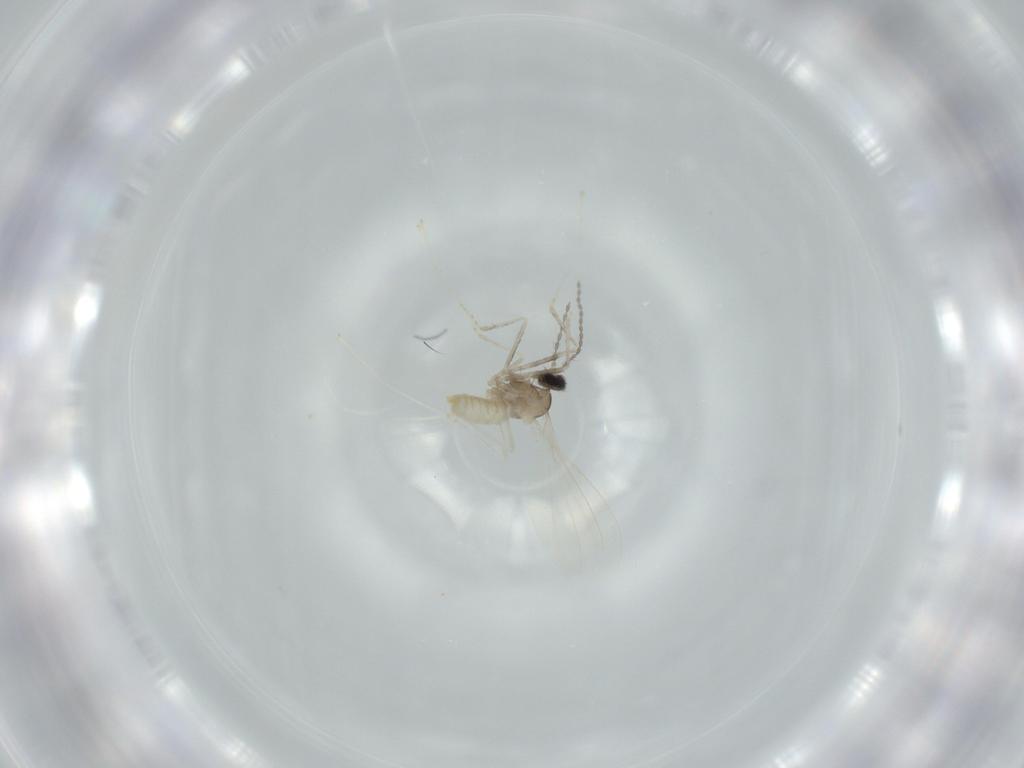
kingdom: Animalia
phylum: Arthropoda
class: Insecta
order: Diptera
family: Cecidomyiidae
